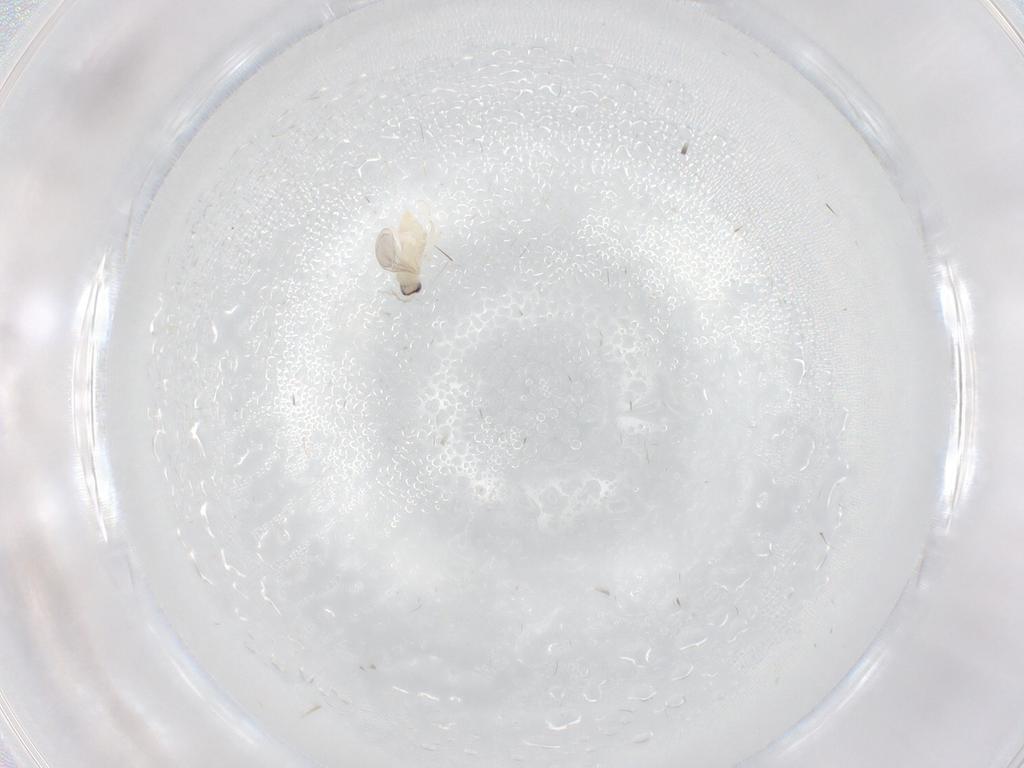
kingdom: Animalia
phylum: Arthropoda
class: Insecta
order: Diptera
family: Cecidomyiidae
